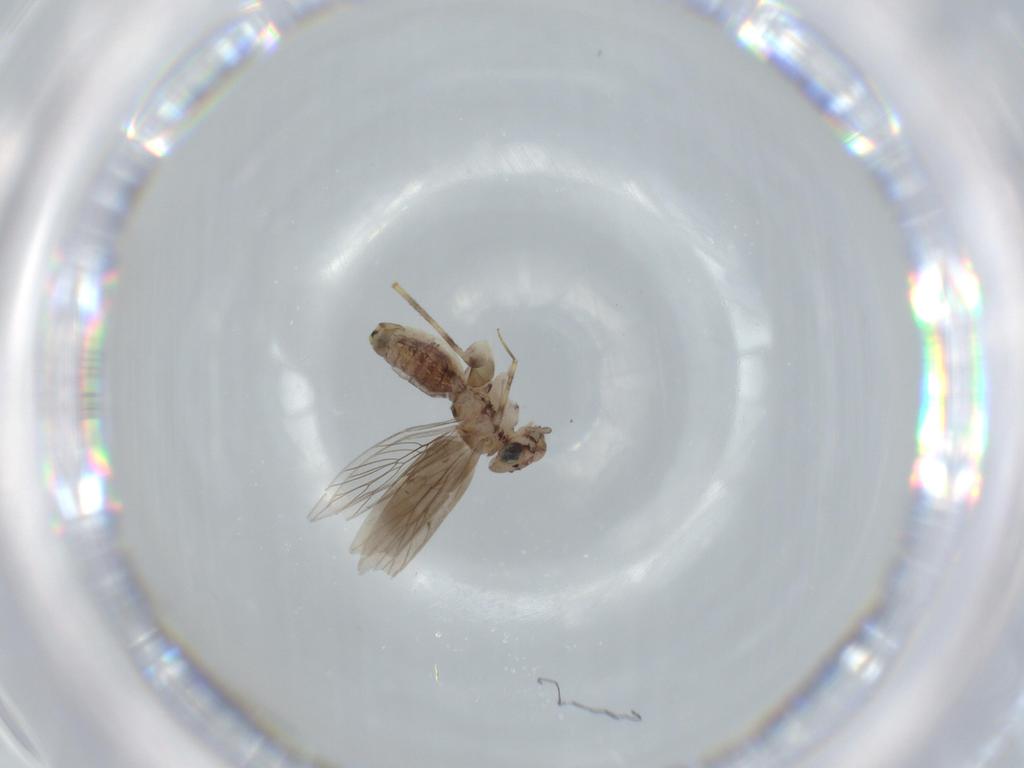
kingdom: Animalia
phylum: Arthropoda
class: Insecta
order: Psocodea
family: Lepidopsocidae
